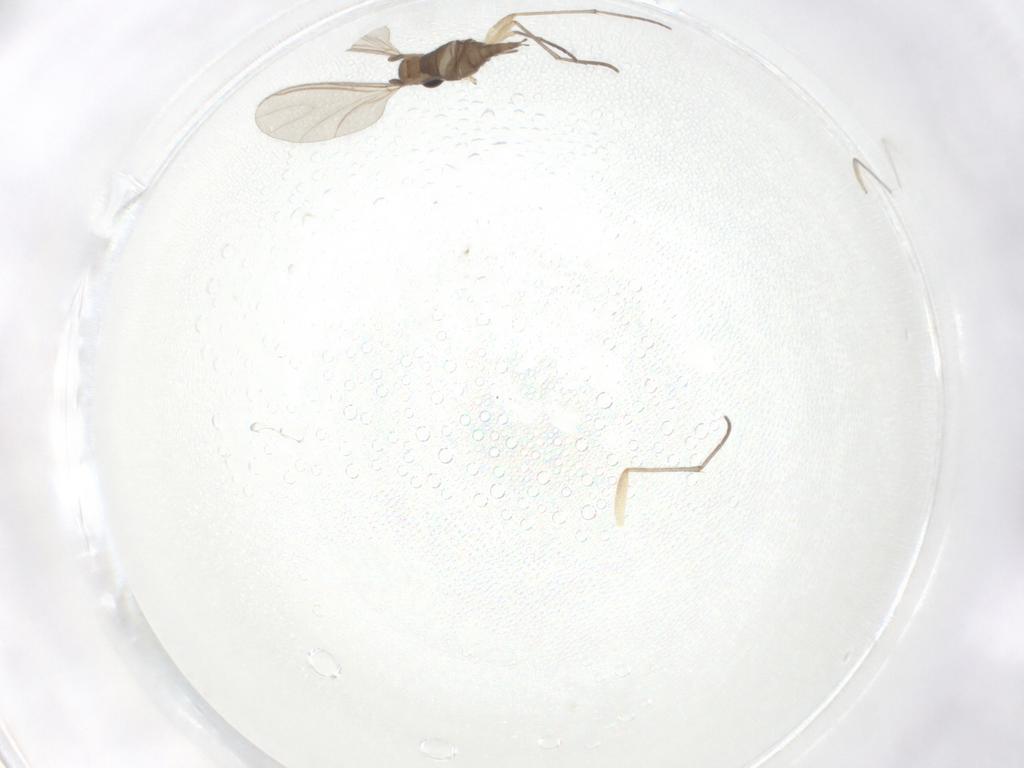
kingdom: Animalia
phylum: Arthropoda
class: Insecta
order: Diptera
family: Sciaridae
